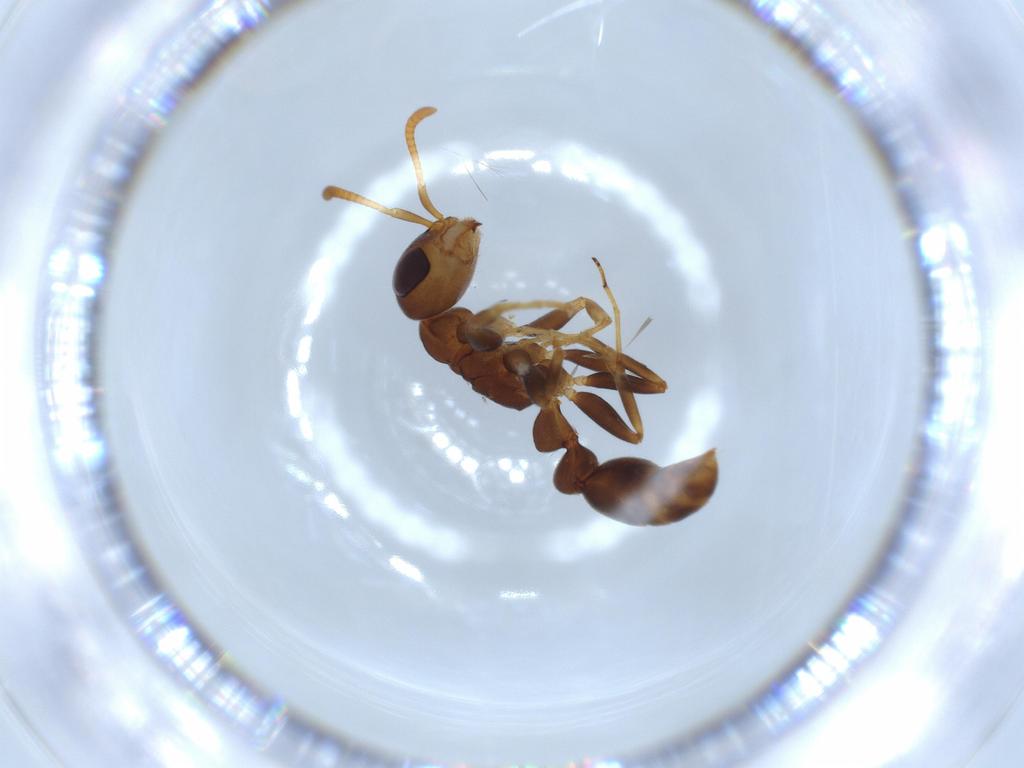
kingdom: Animalia
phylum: Arthropoda
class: Insecta
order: Hymenoptera
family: Formicidae
